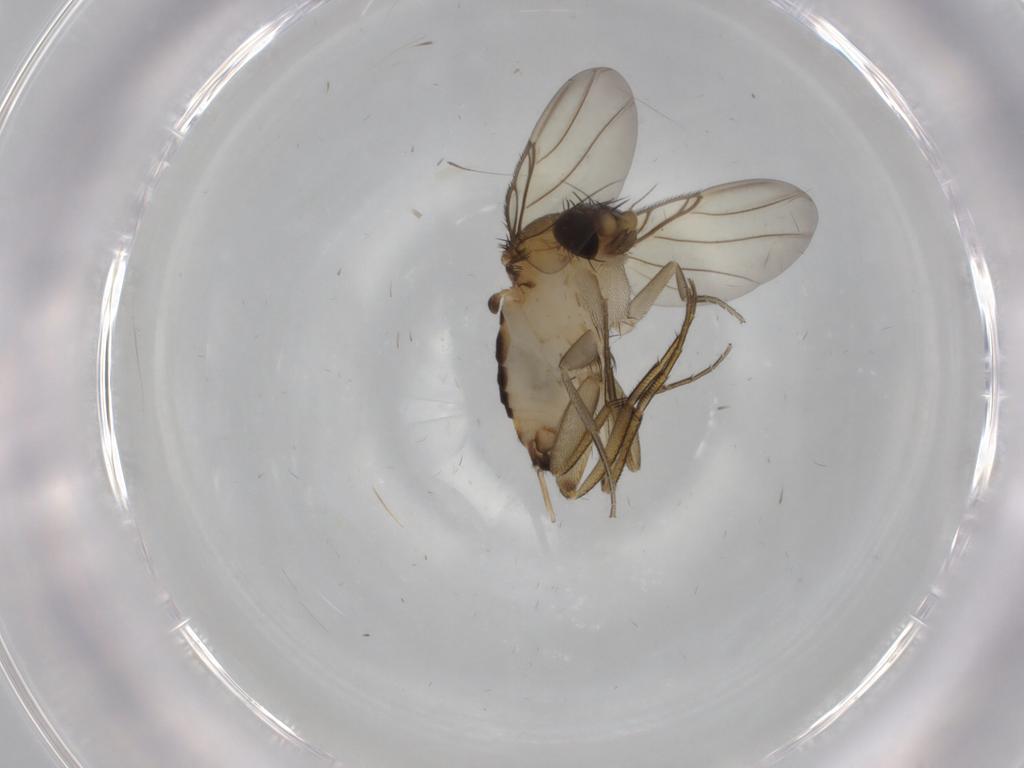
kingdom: Animalia
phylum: Arthropoda
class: Insecta
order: Diptera
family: Phoridae
